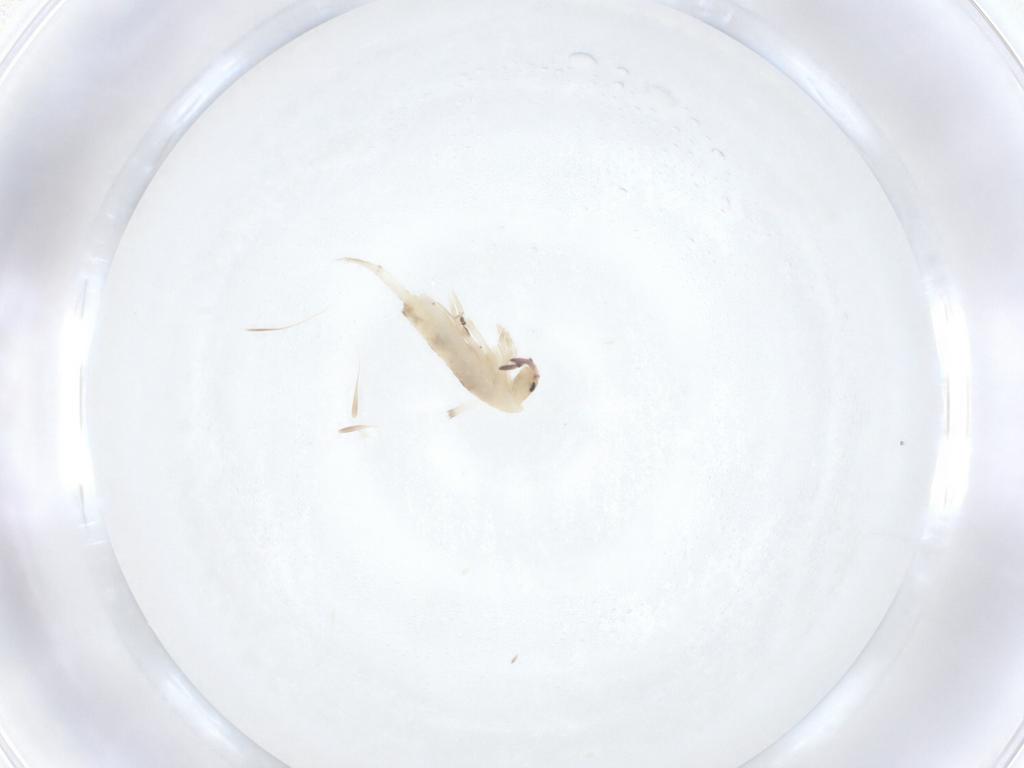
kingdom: Animalia
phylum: Arthropoda
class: Collembola
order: Entomobryomorpha
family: Entomobryidae
